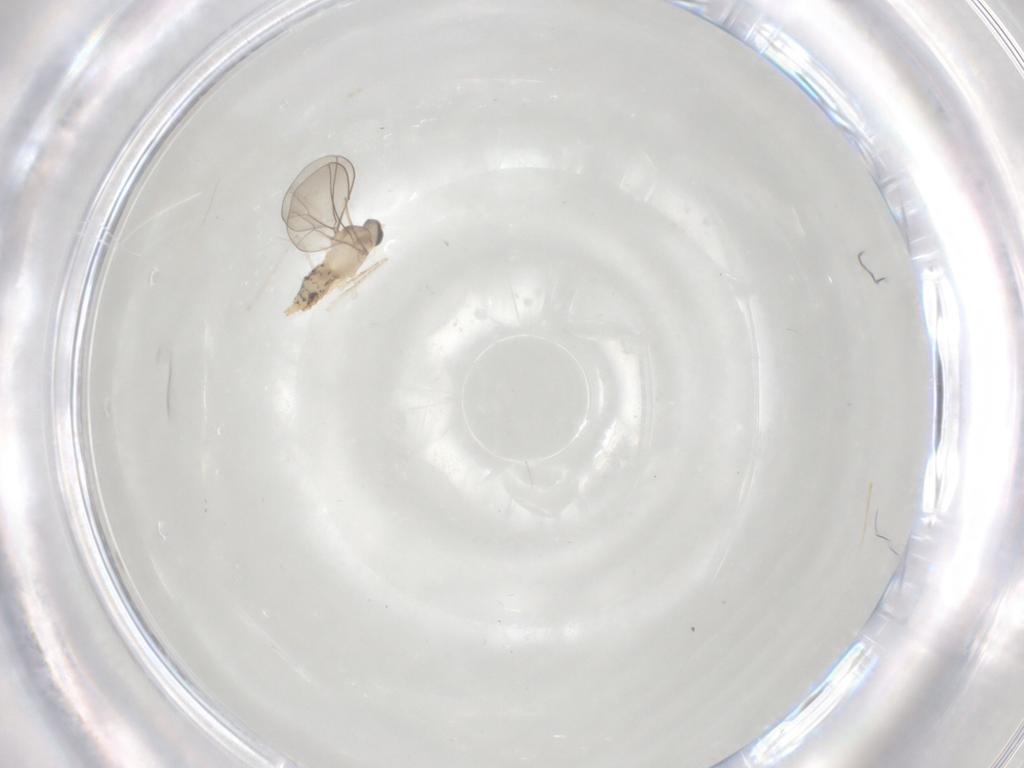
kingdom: Animalia
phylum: Arthropoda
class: Insecta
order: Diptera
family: Cecidomyiidae
